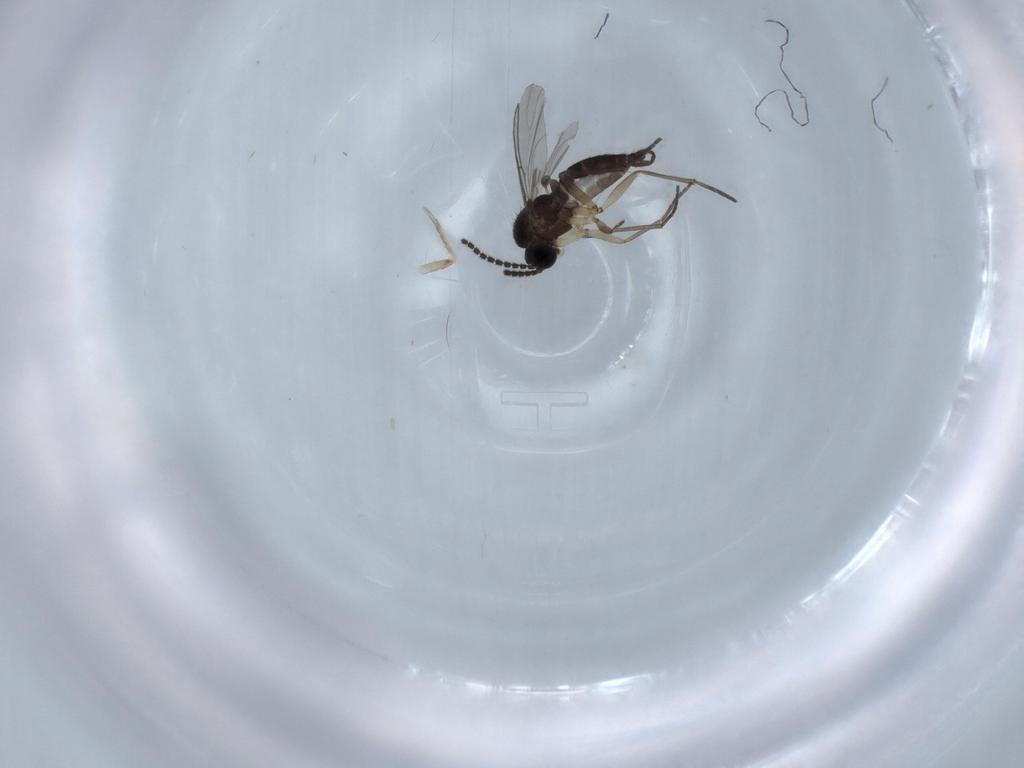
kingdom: Animalia
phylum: Arthropoda
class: Insecta
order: Diptera
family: Sciaridae
